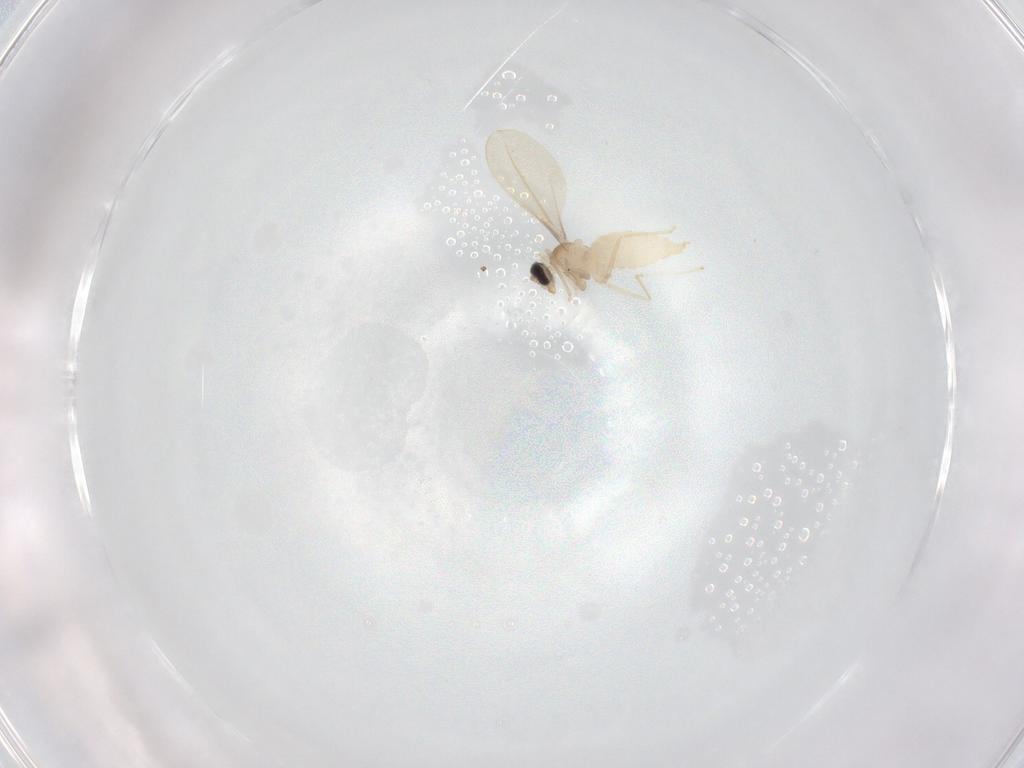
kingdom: Animalia
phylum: Arthropoda
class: Insecta
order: Diptera
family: Cecidomyiidae
